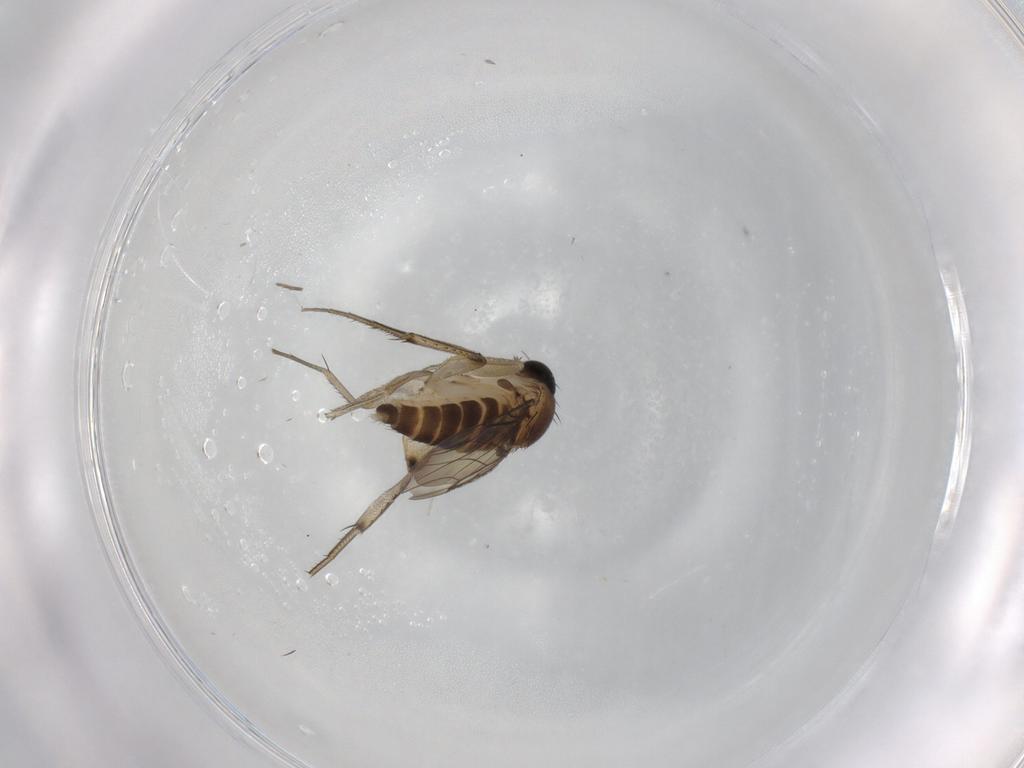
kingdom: Animalia
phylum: Arthropoda
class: Insecta
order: Diptera
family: Phoridae
